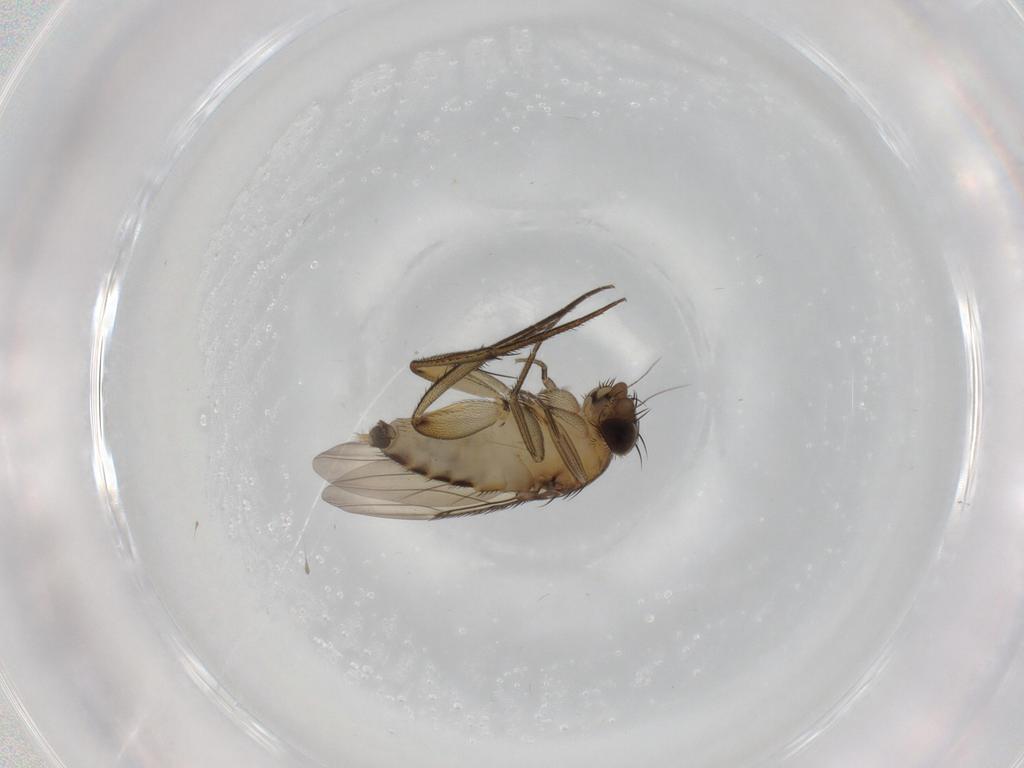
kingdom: Animalia
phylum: Arthropoda
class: Insecta
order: Diptera
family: Phoridae
